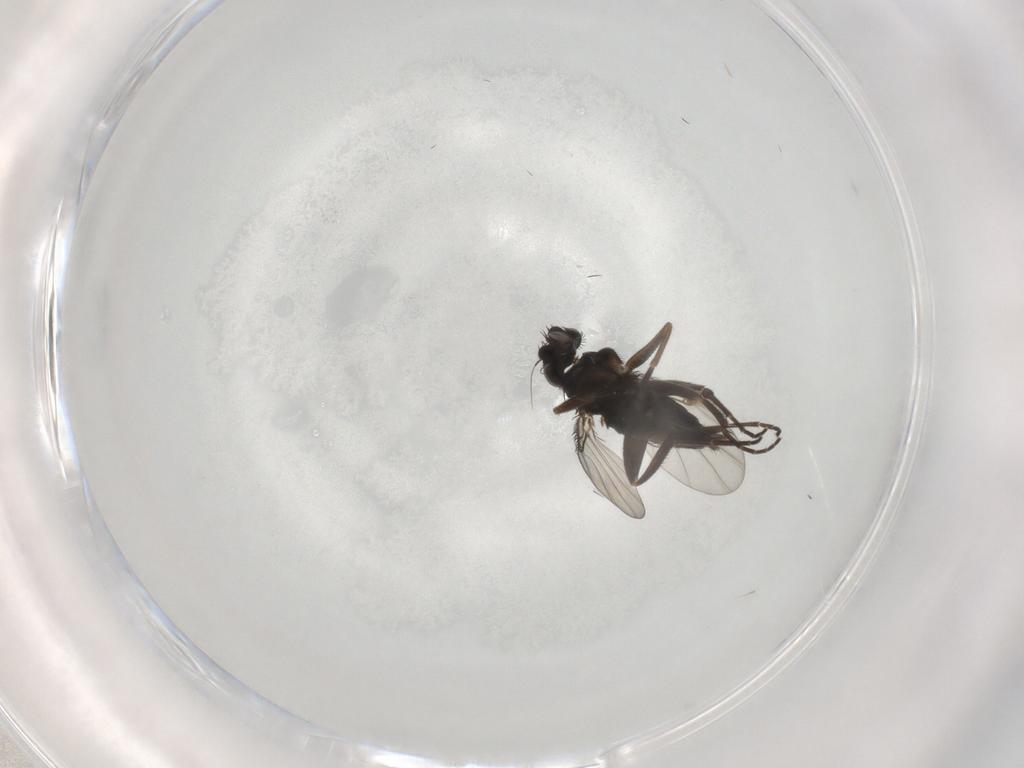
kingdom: Animalia
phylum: Arthropoda
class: Insecta
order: Diptera
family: Phoridae
